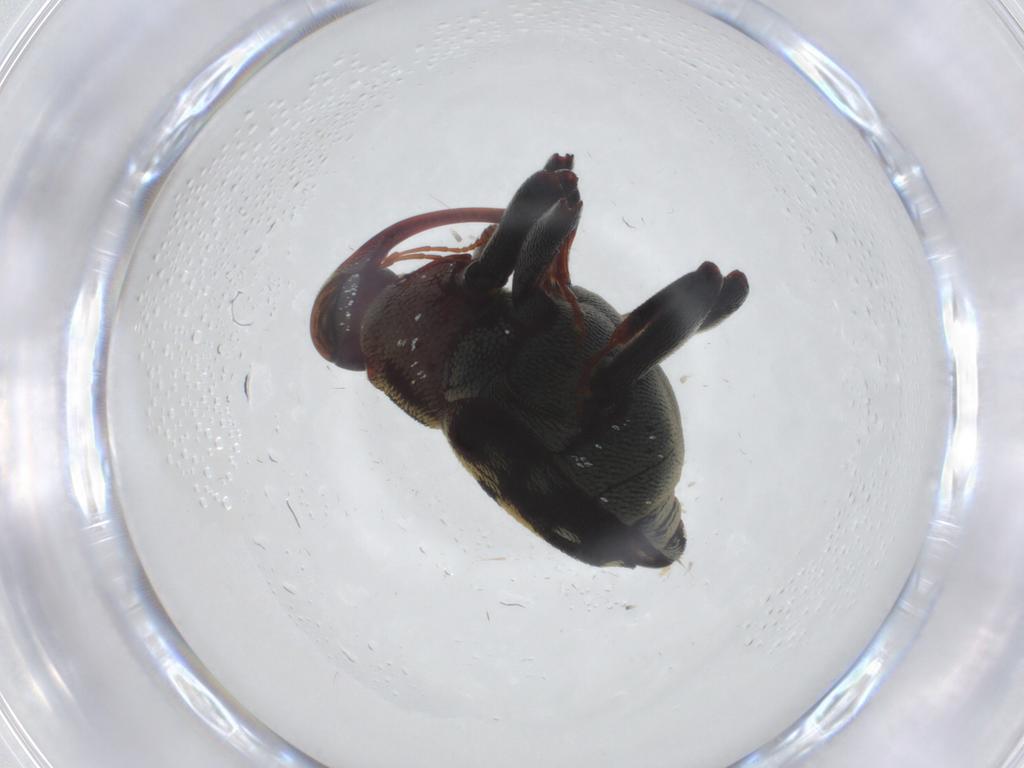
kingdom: Animalia
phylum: Arthropoda
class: Insecta
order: Coleoptera
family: Curculionidae
